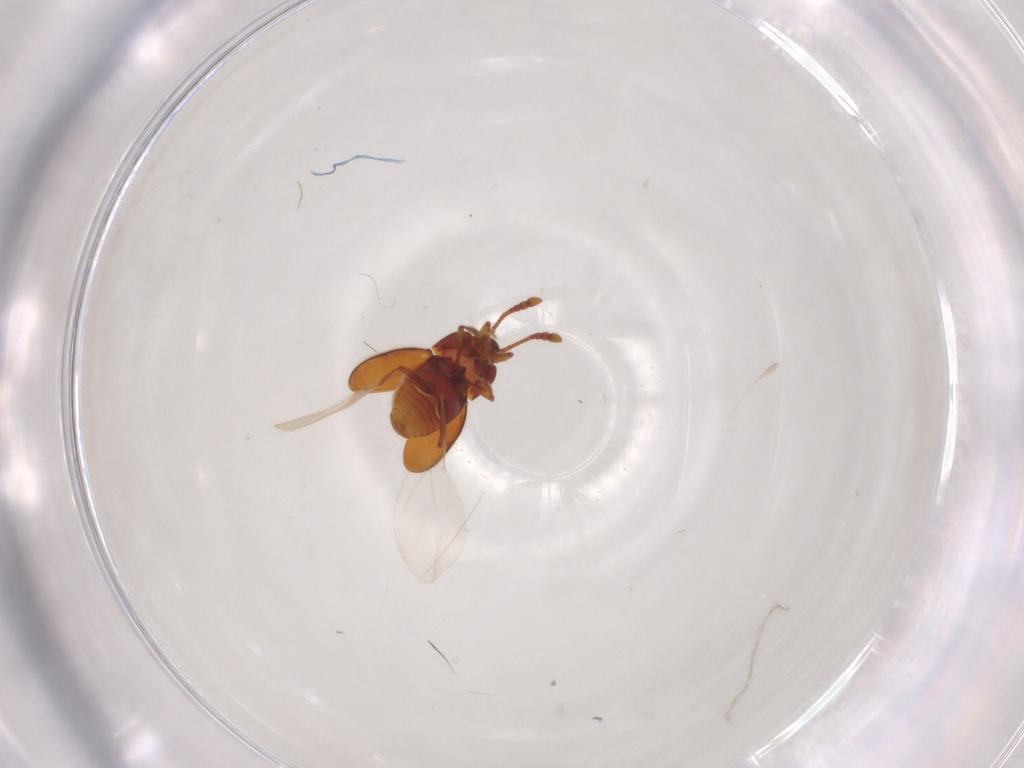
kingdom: Animalia
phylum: Arthropoda
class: Insecta
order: Coleoptera
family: Staphylinidae
